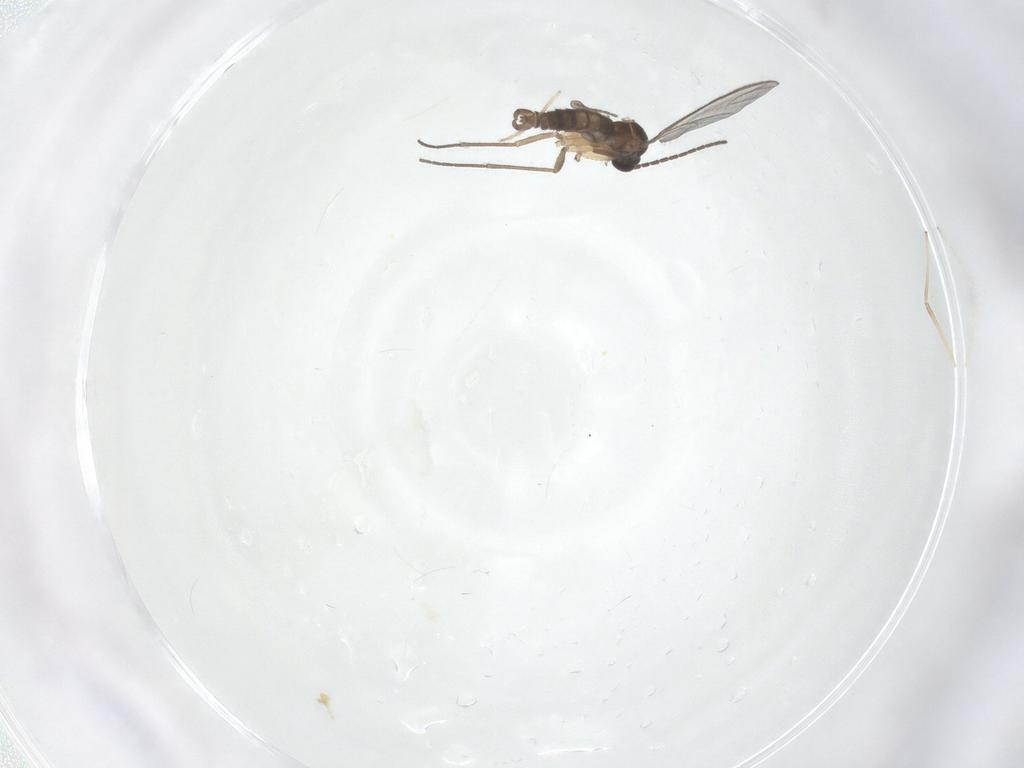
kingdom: Animalia
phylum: Arthropoda
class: Insecta
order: Diptera
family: Sciaridae
